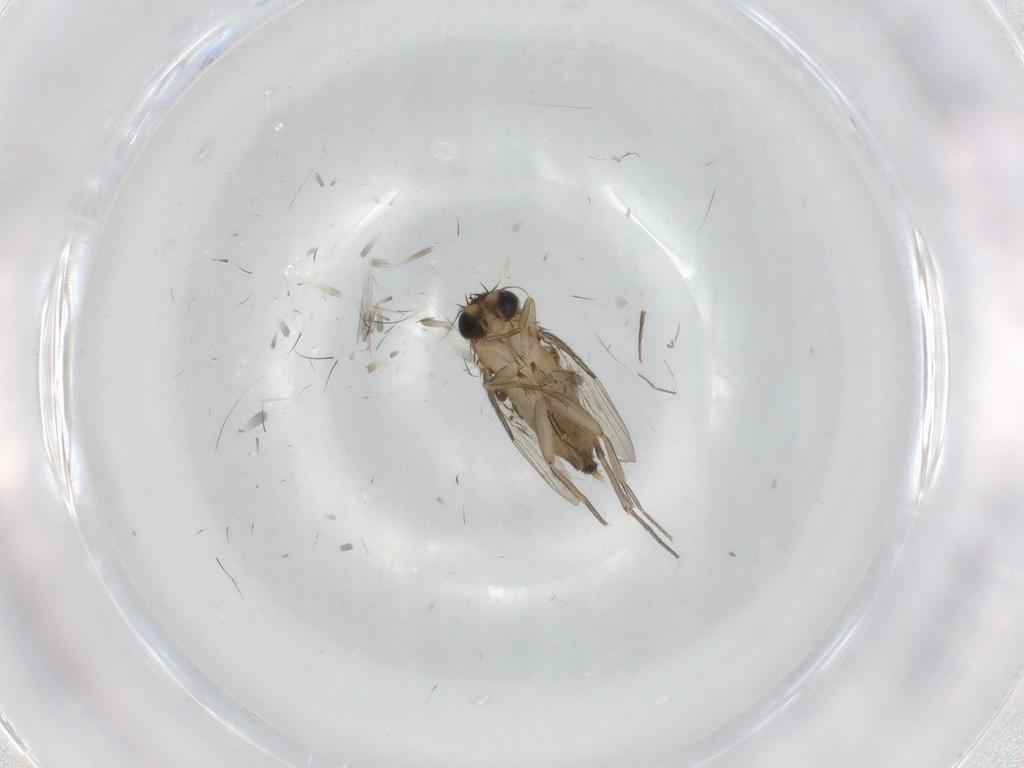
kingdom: Animalia
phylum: Arthropoda
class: Insecta
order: Diptera
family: Phoridae
